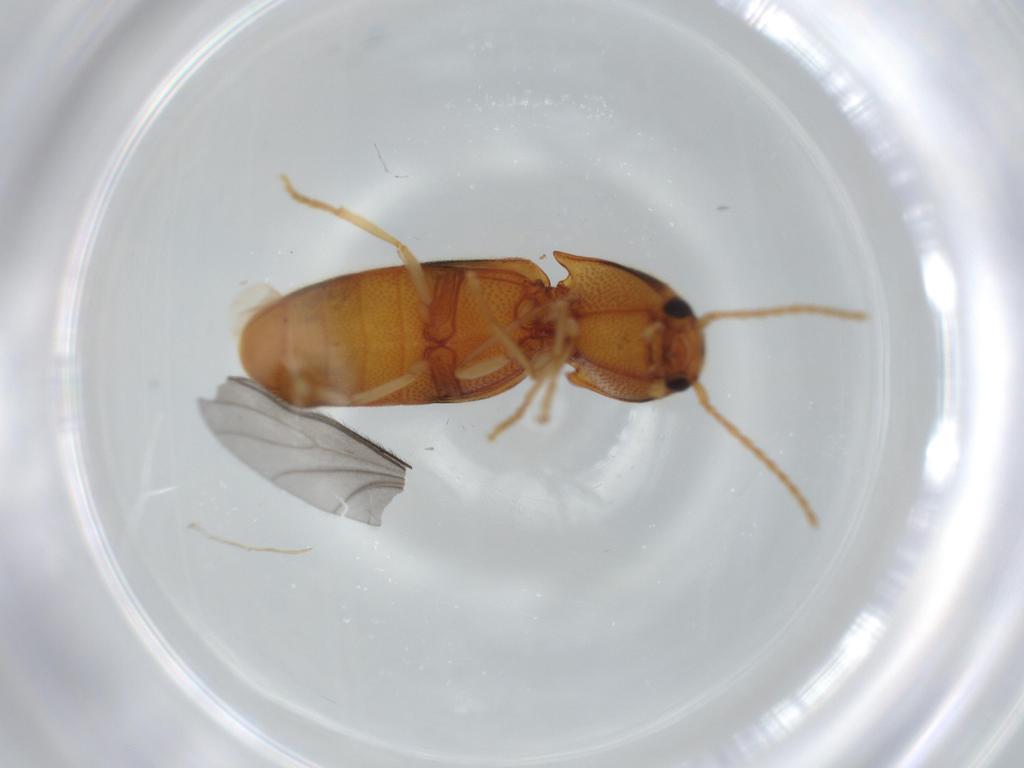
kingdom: Animalia
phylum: Arthropoda
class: Insecta
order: Coleoptera
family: Elateridae
